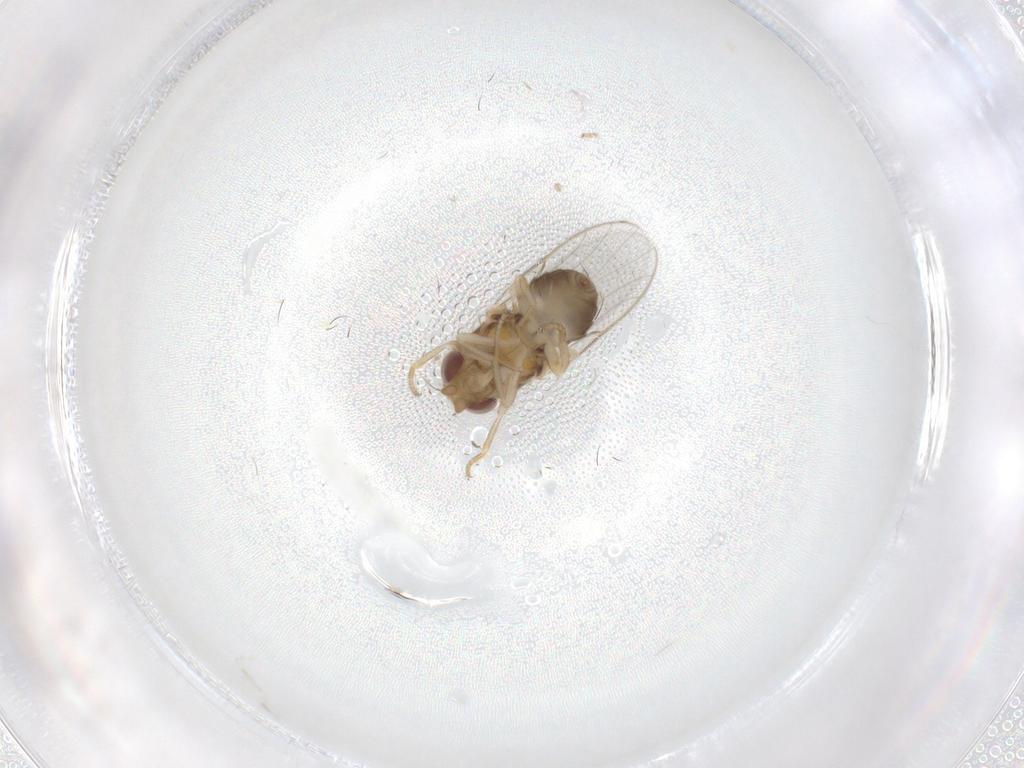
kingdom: Animalia
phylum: Arthropoda
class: Insecta
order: Diptera
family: Chloropidae
